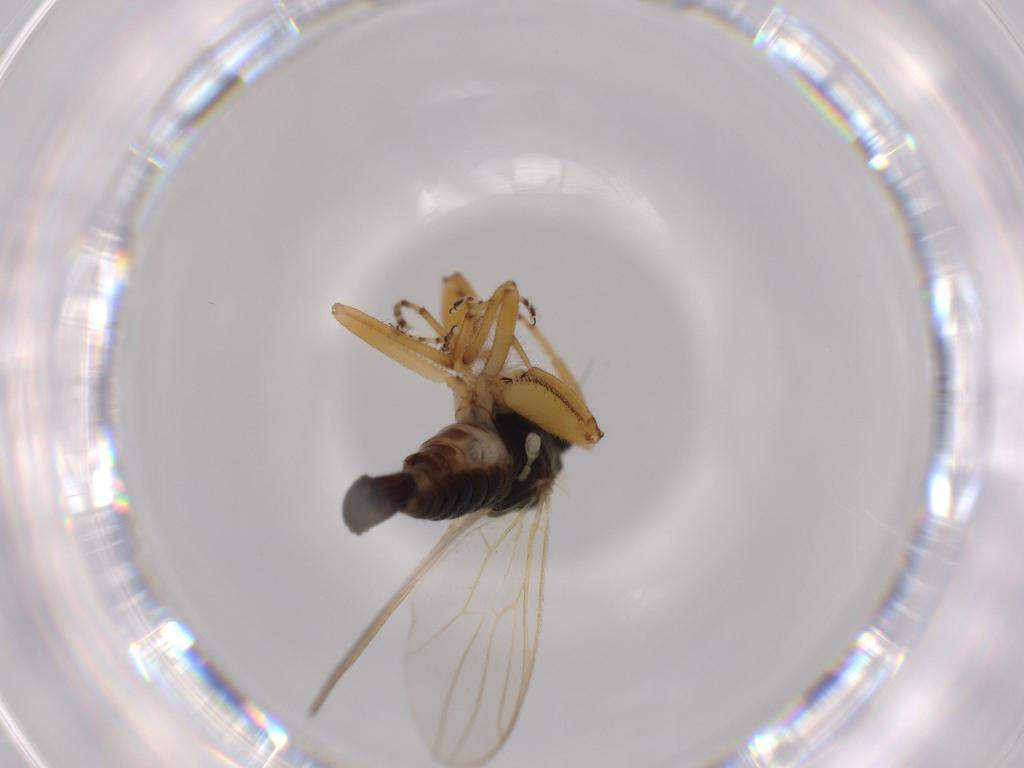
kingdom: Animalia
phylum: Arthropoda
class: Insecta
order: Diptera
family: Hybotidae
